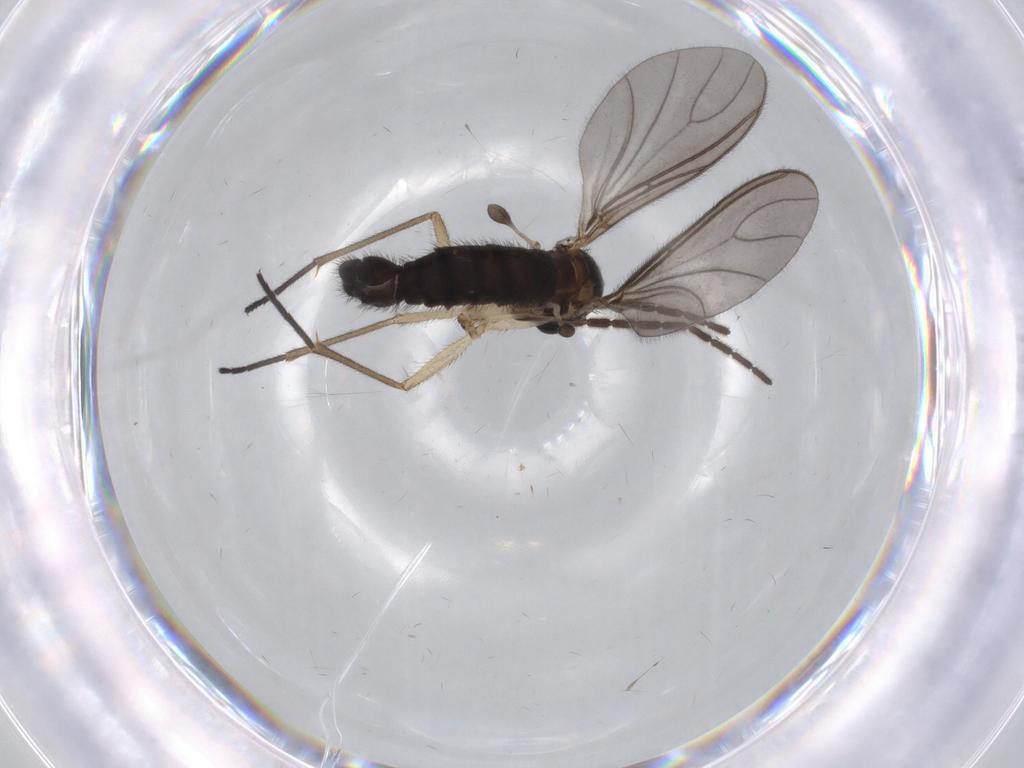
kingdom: Animalia
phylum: Arthropoda
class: Insecta
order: Diptera
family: Sciaridae
